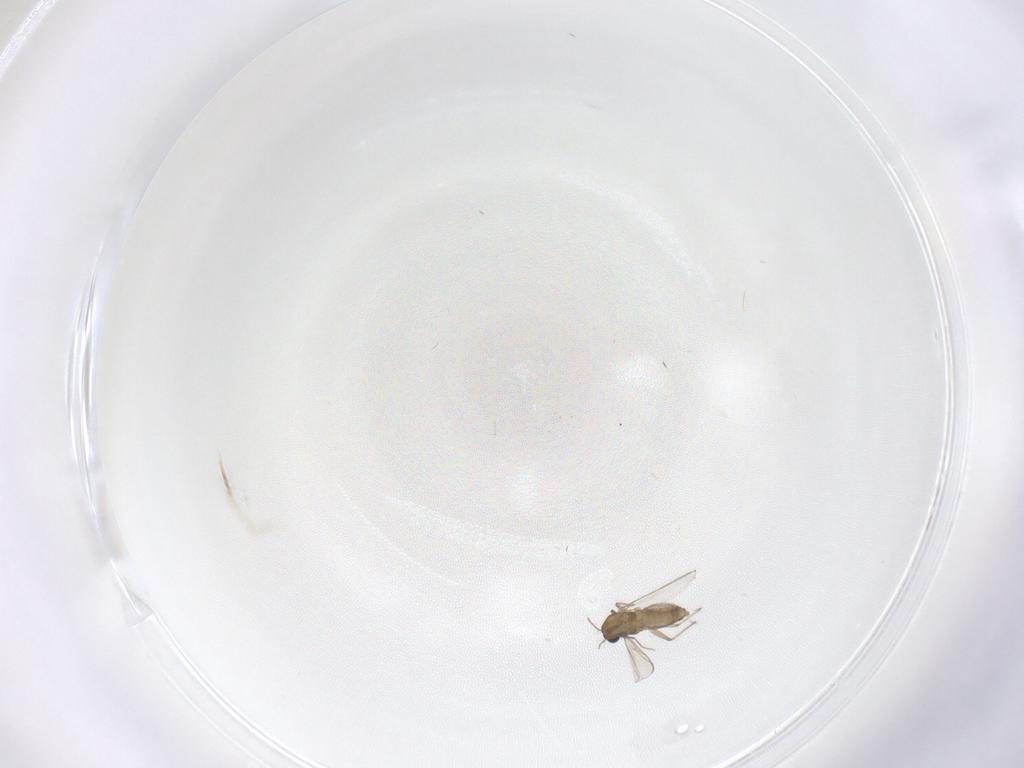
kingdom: Animalia
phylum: Arthropoda
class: Insecta
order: Diptera
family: Chironomidae
